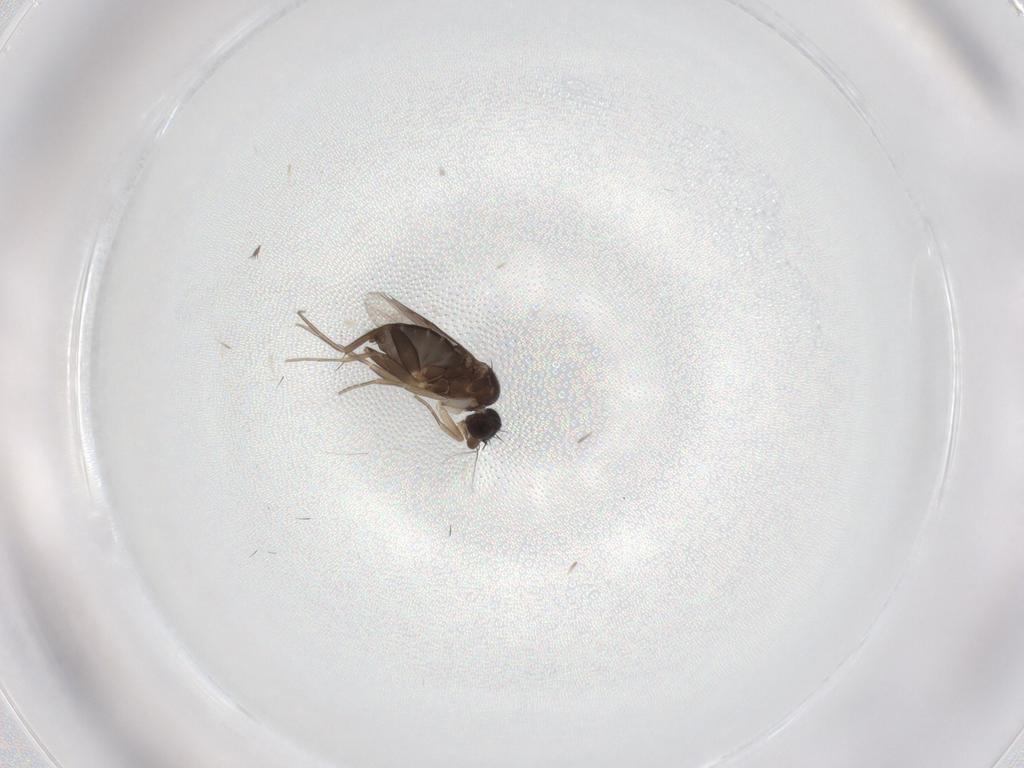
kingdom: Animalia
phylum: Arthropoda
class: Insecta
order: Diptera
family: Phoridae
